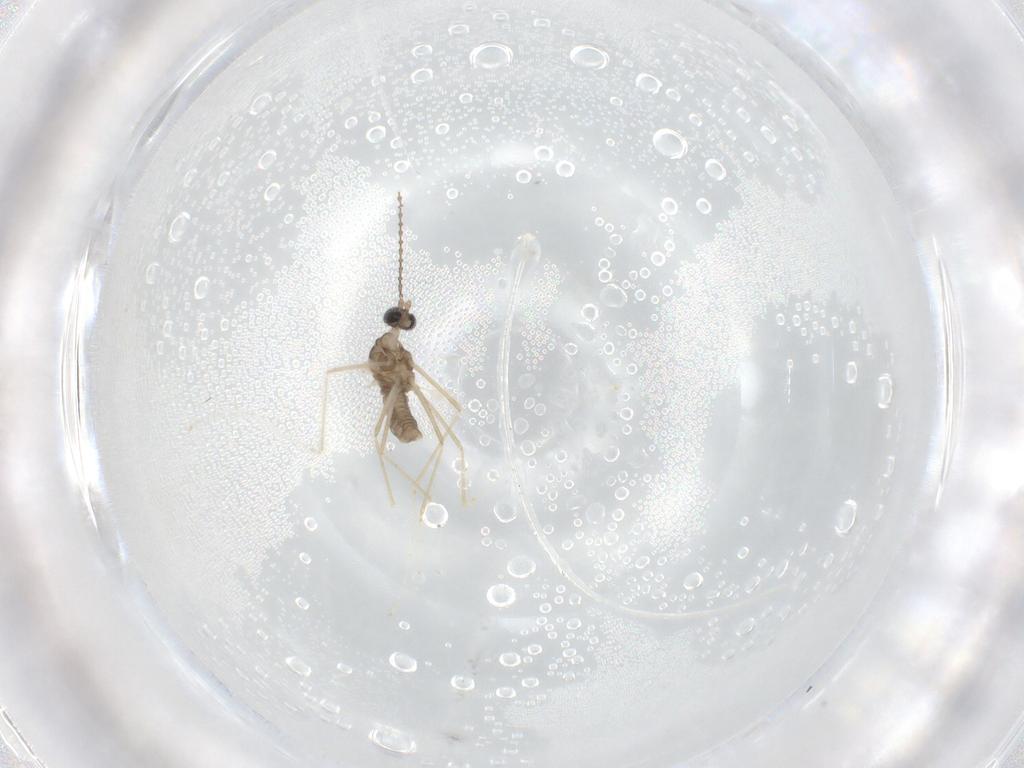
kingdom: Animalia
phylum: Arthropoda
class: Insecta
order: Diptera
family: Cecidomyiidae
